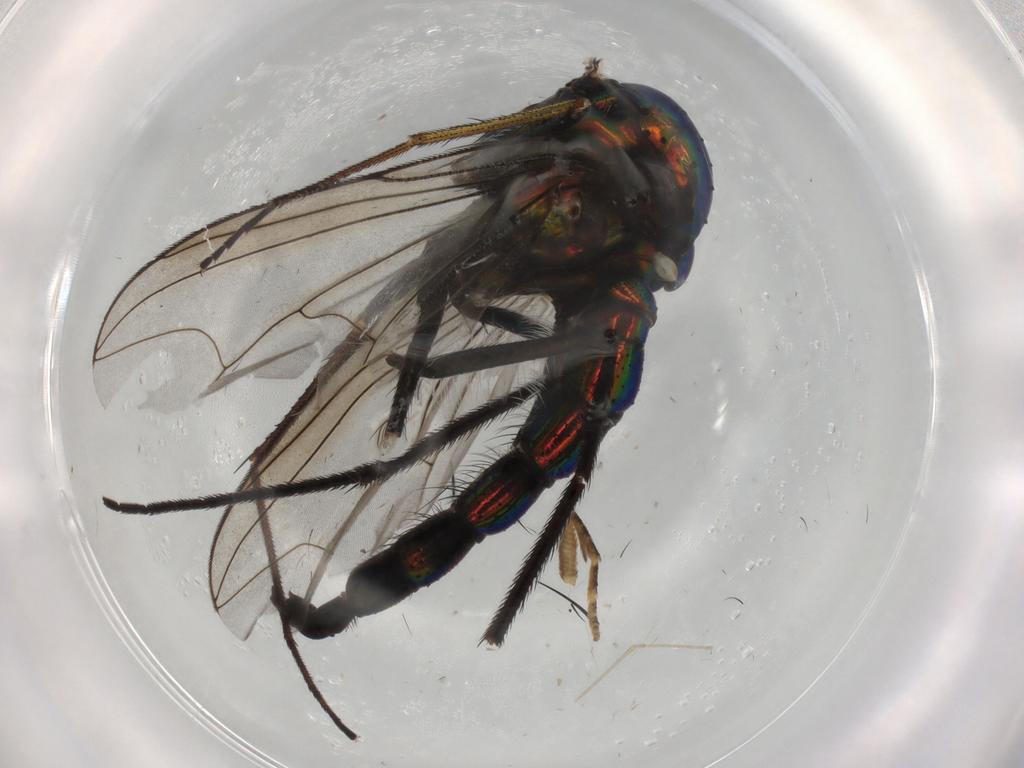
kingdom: Animalia
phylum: Arthropoda
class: Insecta
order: Diptera
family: Dolichopodidae
